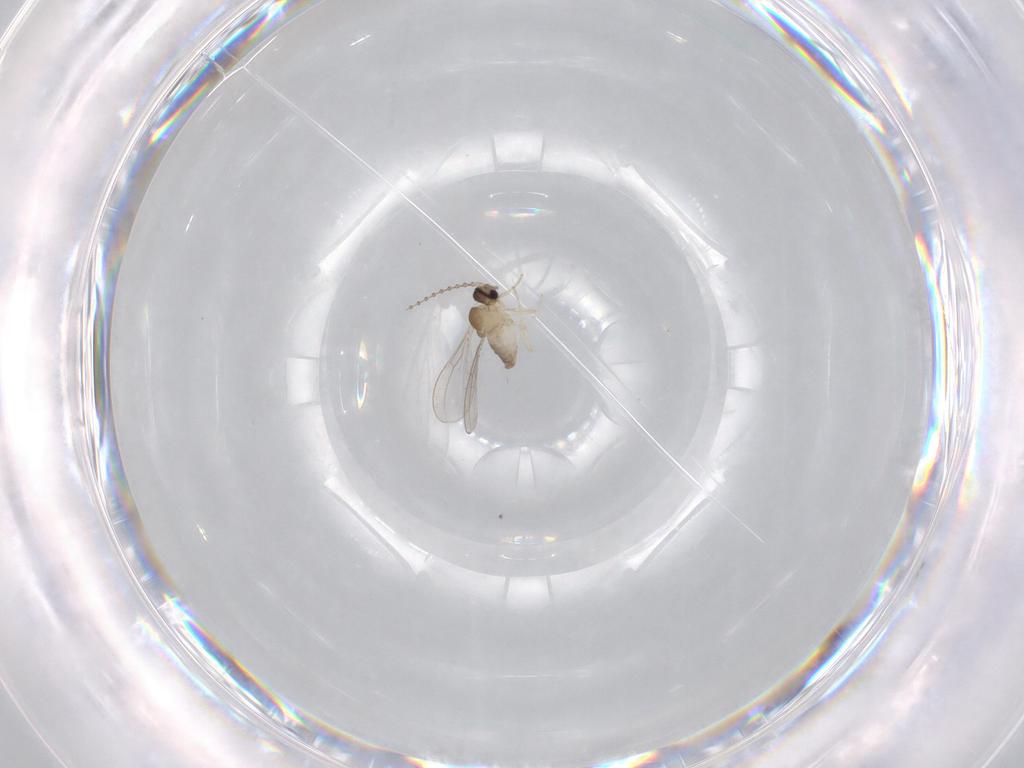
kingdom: Animalia
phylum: Arthropoda
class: Insecta
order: Diptera
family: Cecidomyiidae
